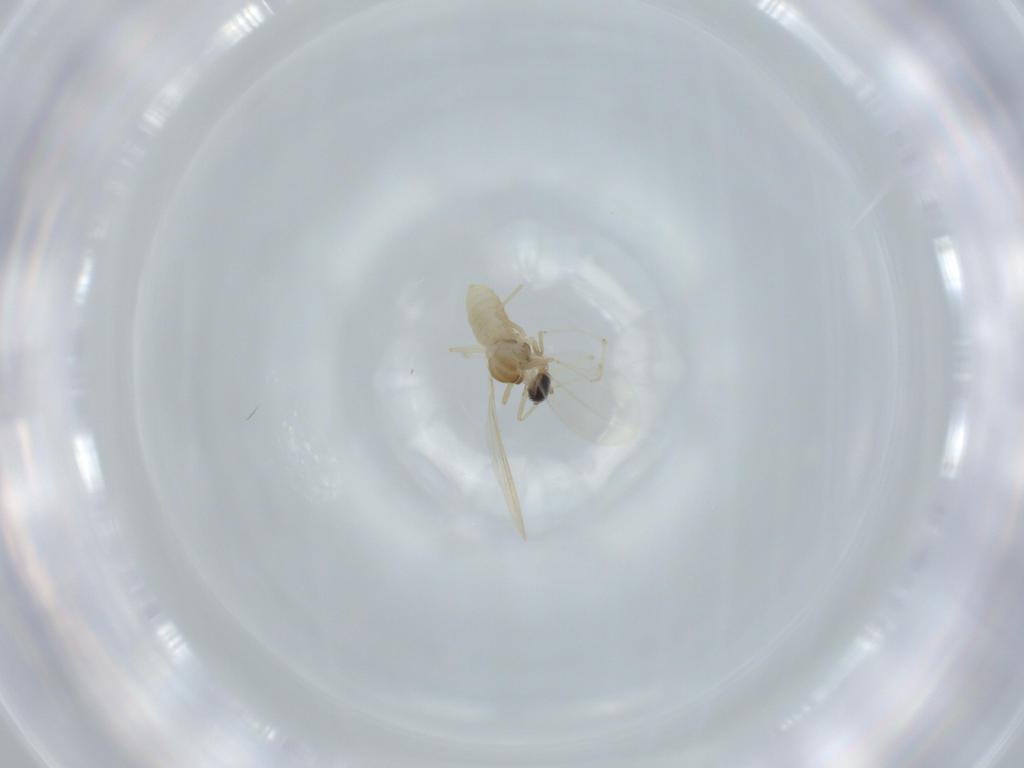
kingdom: Animalia
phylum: Arthropoda
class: Insecta
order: Diptera
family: Cecidomyiidae
